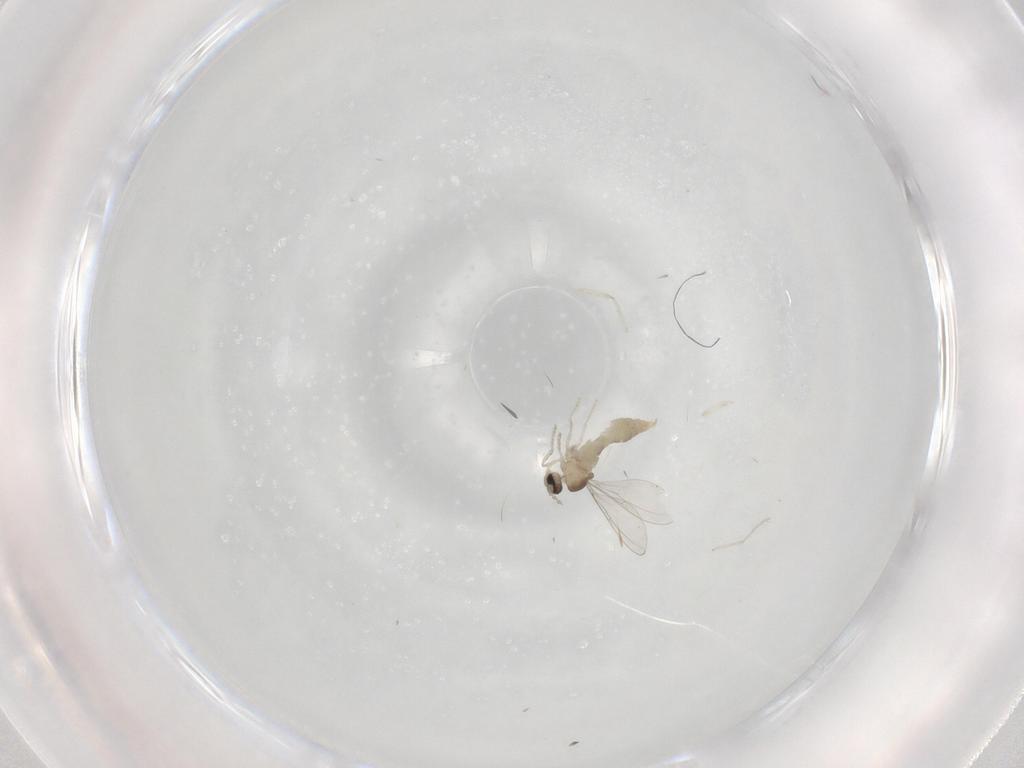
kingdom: Animalia
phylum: Arthropoda
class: Insecta
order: Diptera
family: Cecidomyiidae
